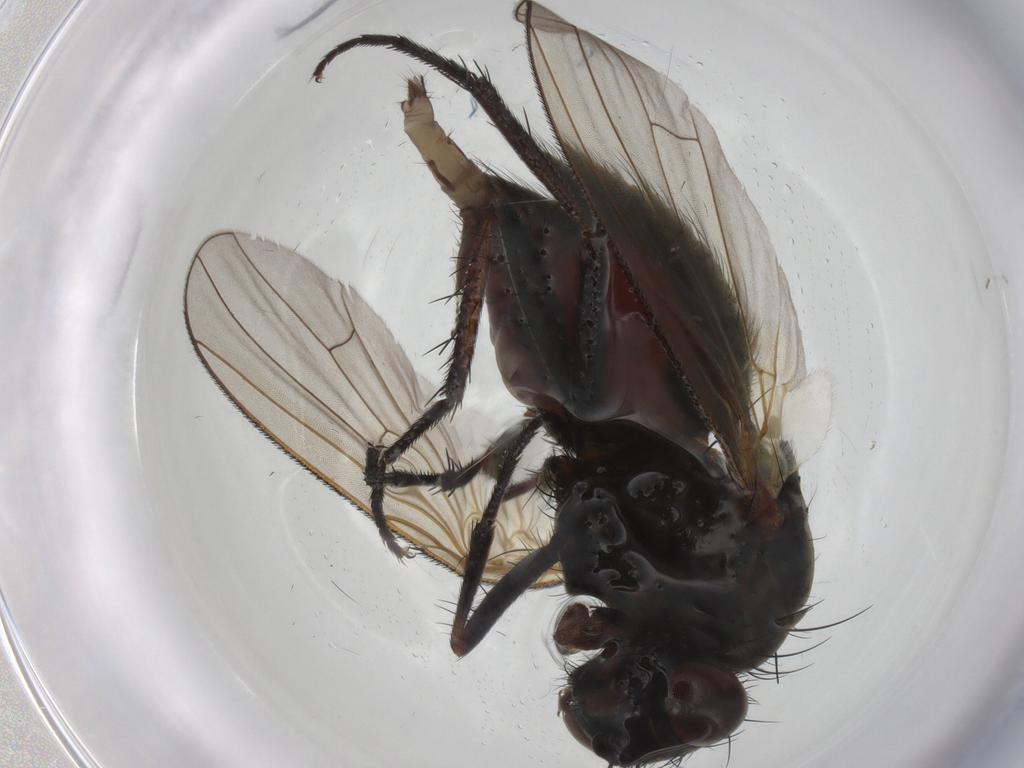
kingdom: Animalia
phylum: Arthropoda
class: Insecta
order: Diptera
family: Anthomyiidae
